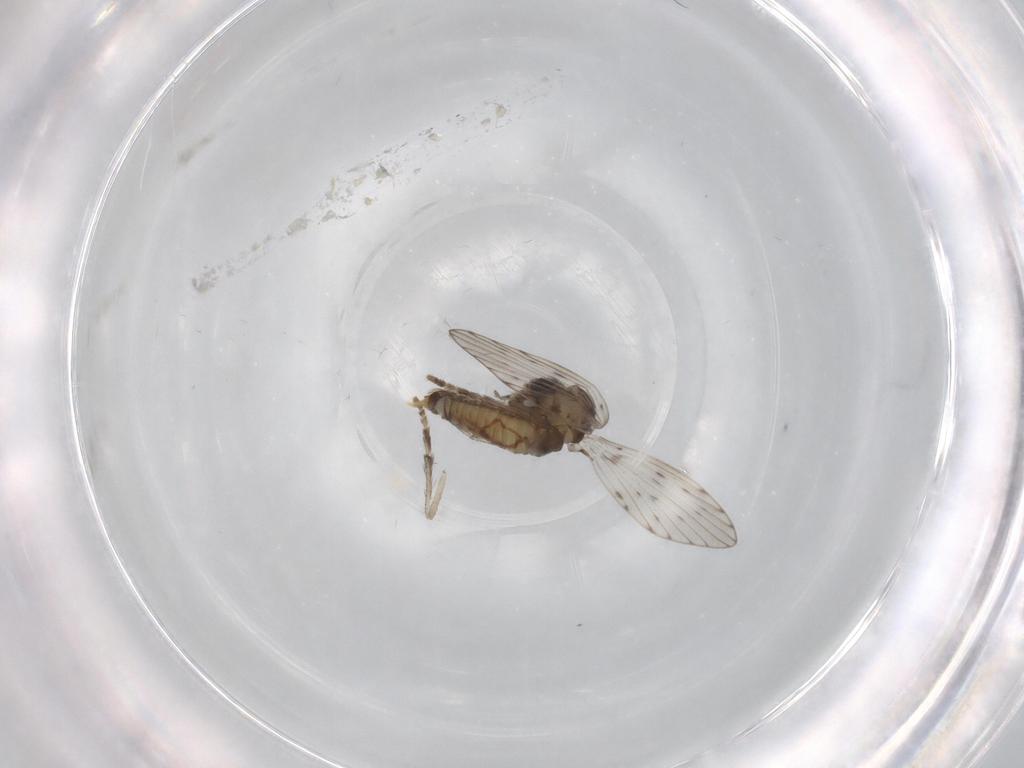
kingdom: Animalia
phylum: Arthropoda
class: Insecta
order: Diptera
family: Psychodidae
